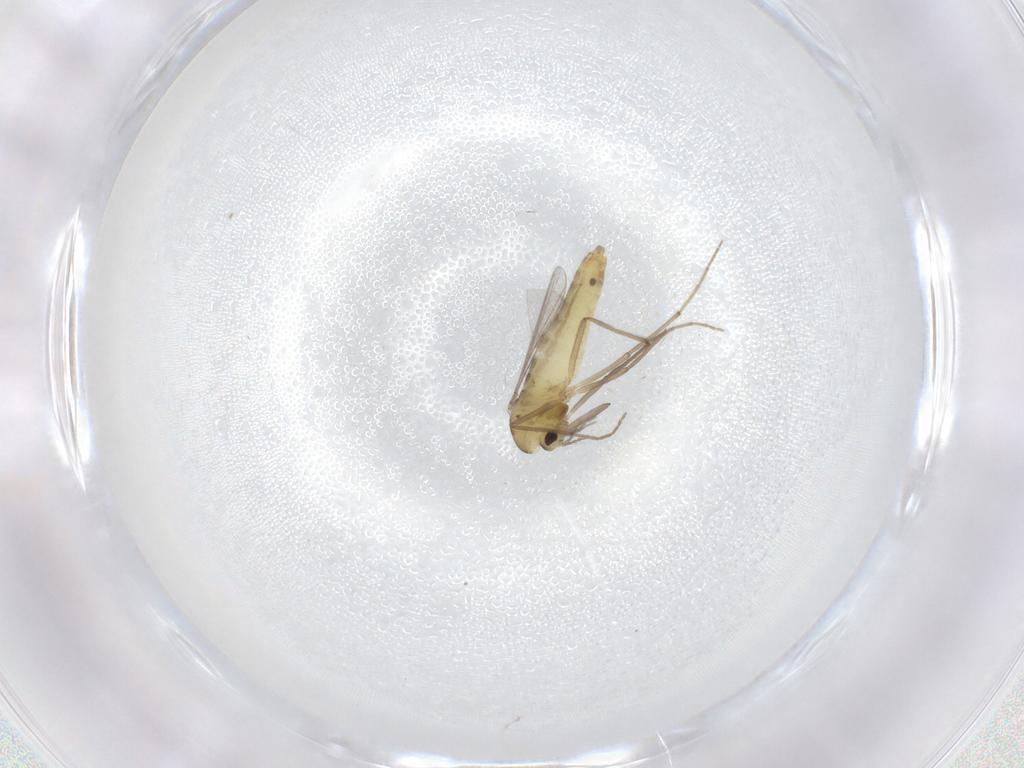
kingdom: Animalia
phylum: Arthropoda
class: Insecta
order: Diptera
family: Chironomidae
